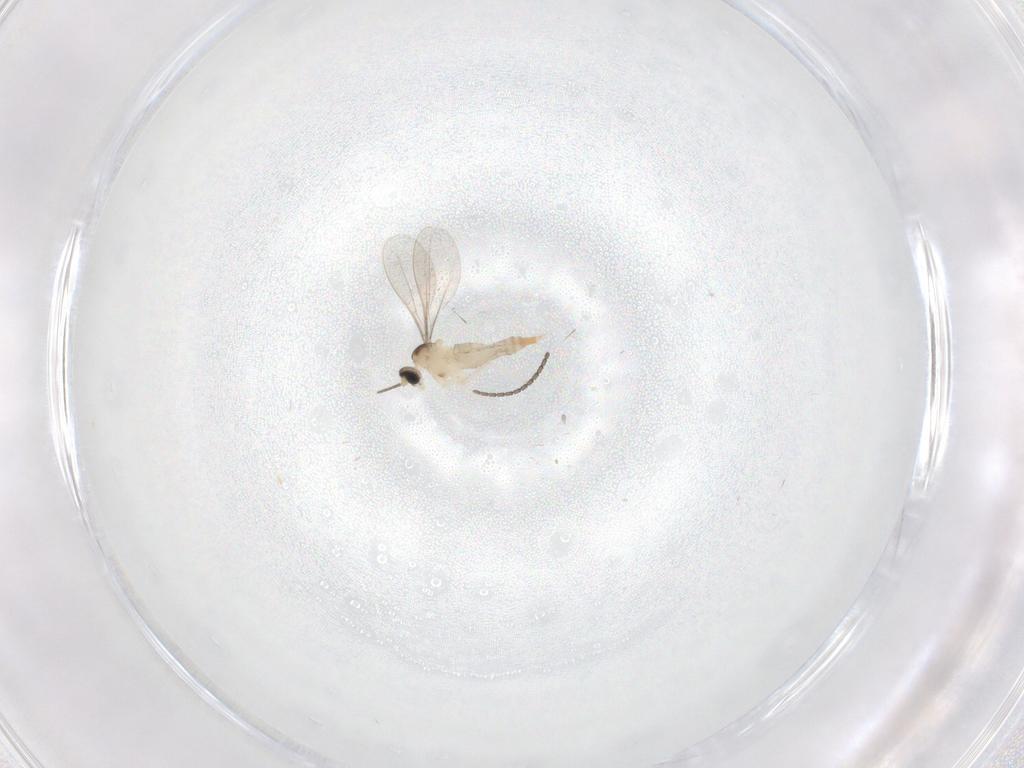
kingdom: Animalia
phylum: Arthropoda
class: Insecta
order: Diptera
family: Cecidomyiidae
